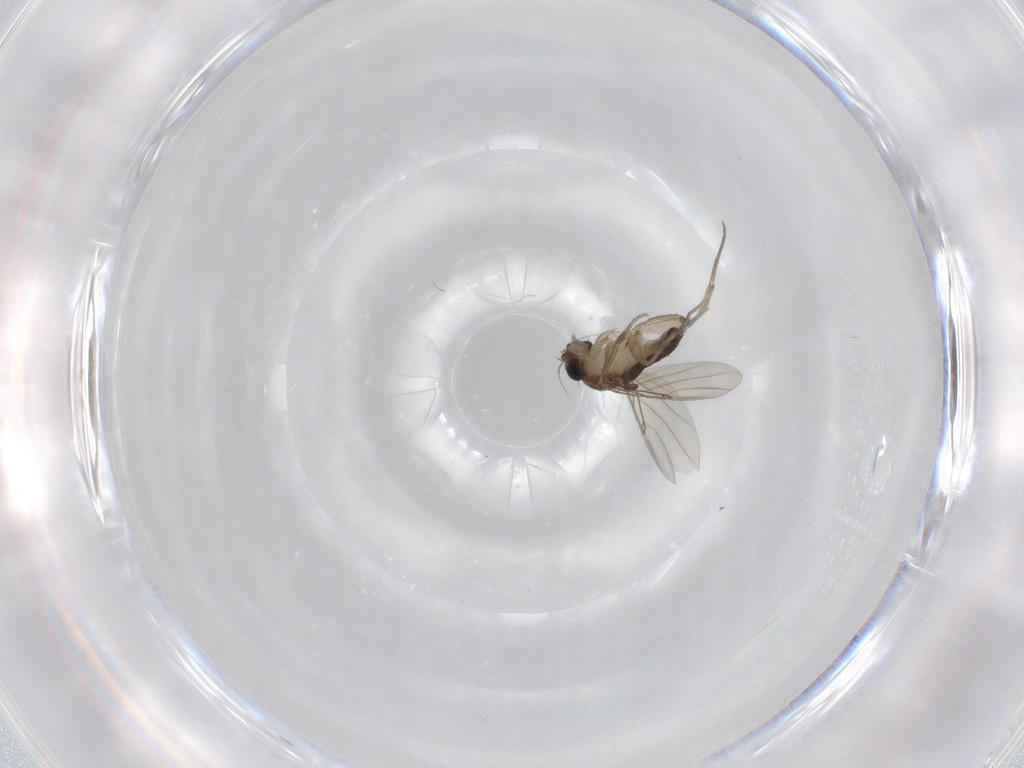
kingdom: Animalia
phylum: Arthropoda
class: Insecta
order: Diptera
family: Phoridae
